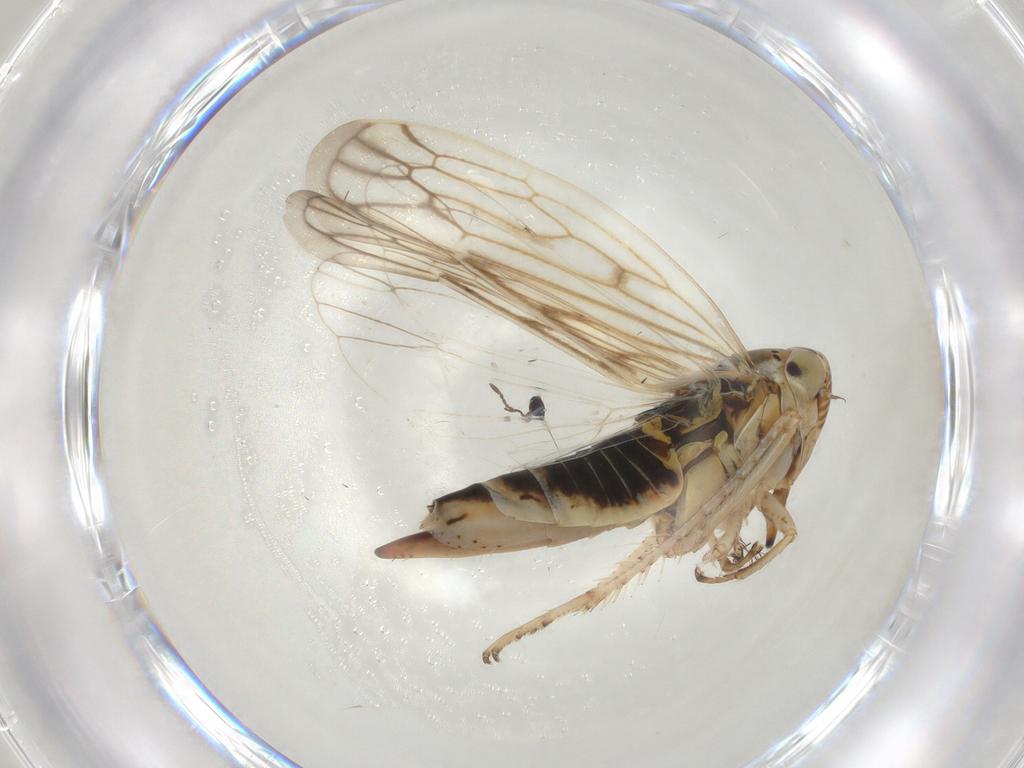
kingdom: Animalia
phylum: Arthropoda
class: Insecta
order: Hemiptera
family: Cicadellidae
